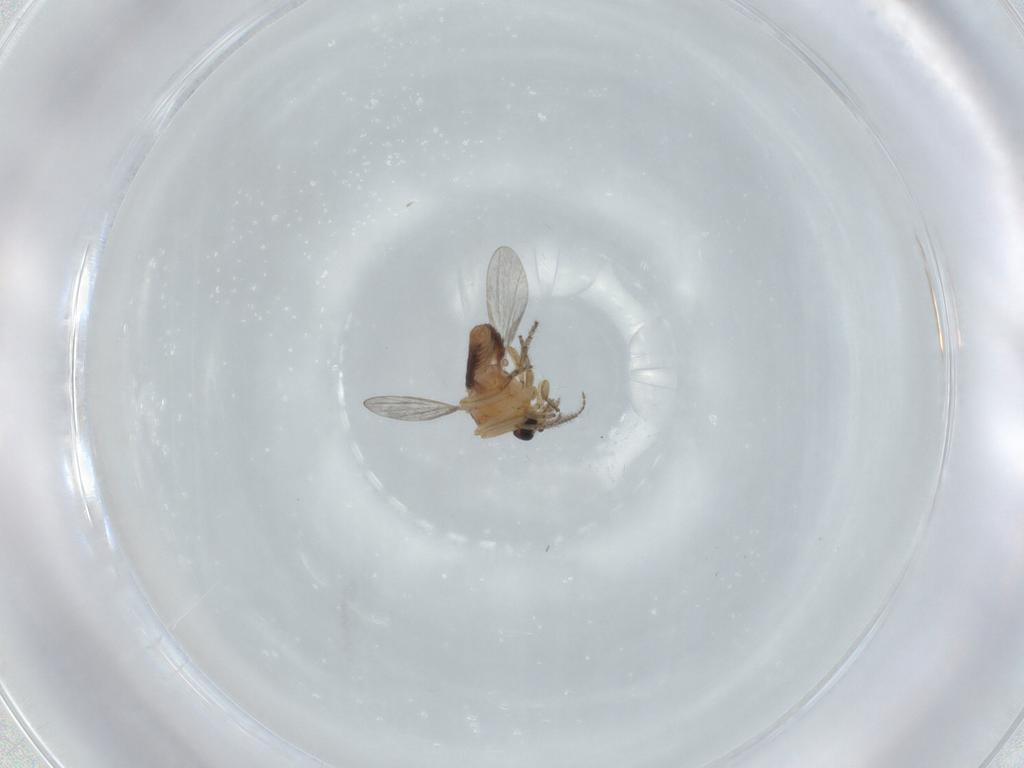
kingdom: Animalia
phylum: Arthropoda
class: Insecta
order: Diptera
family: Ceratopogonidae
